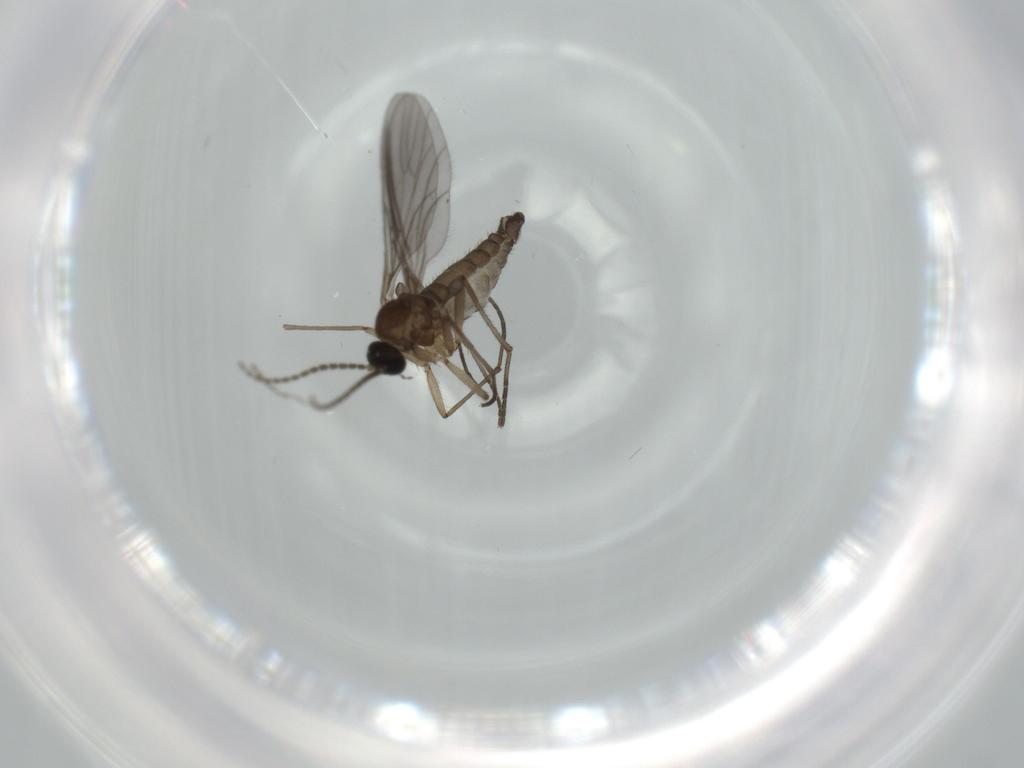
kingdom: Animalia
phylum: Arthropoda
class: Insecta
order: Diptera
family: Sciaridae
